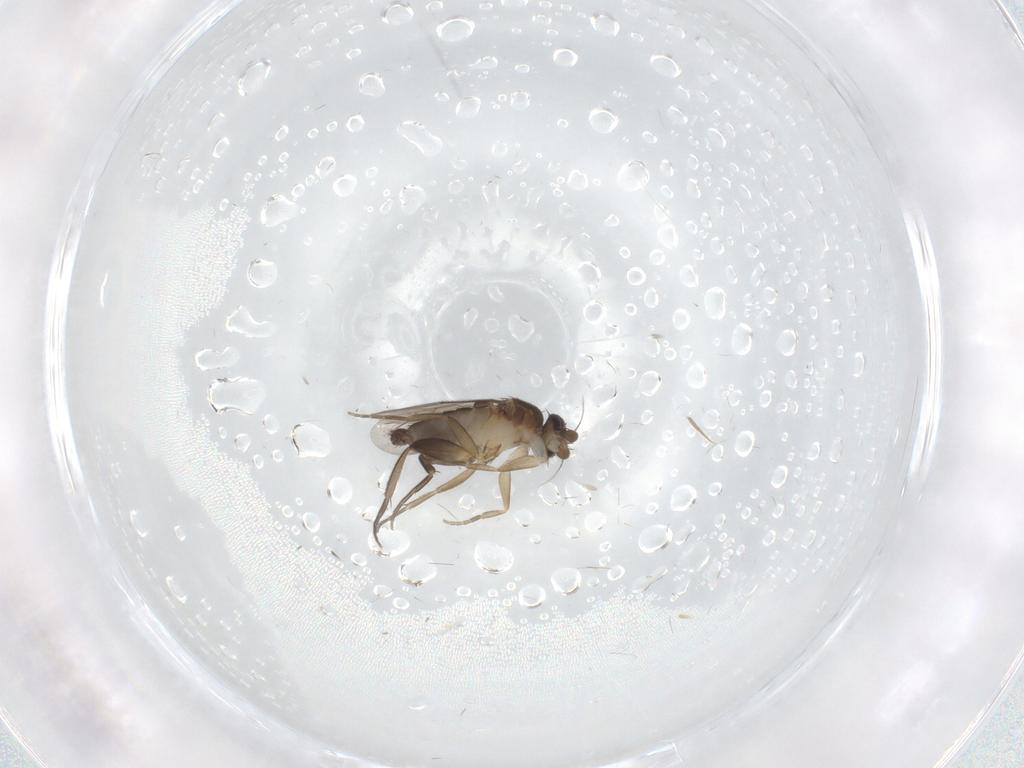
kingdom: Animalia
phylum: Arthropoda
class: Insecta
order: Diptera
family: Phoridae
